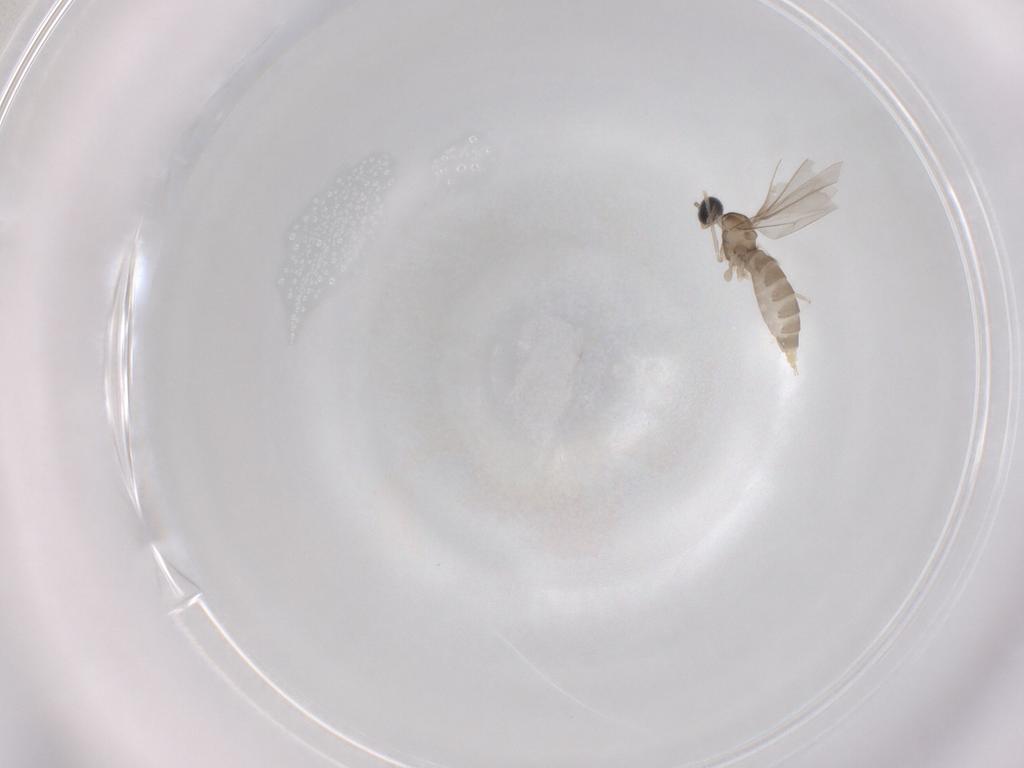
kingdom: Animalia
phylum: Arthropoda
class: Insecta
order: Diptera
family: Cecidomyiidae
